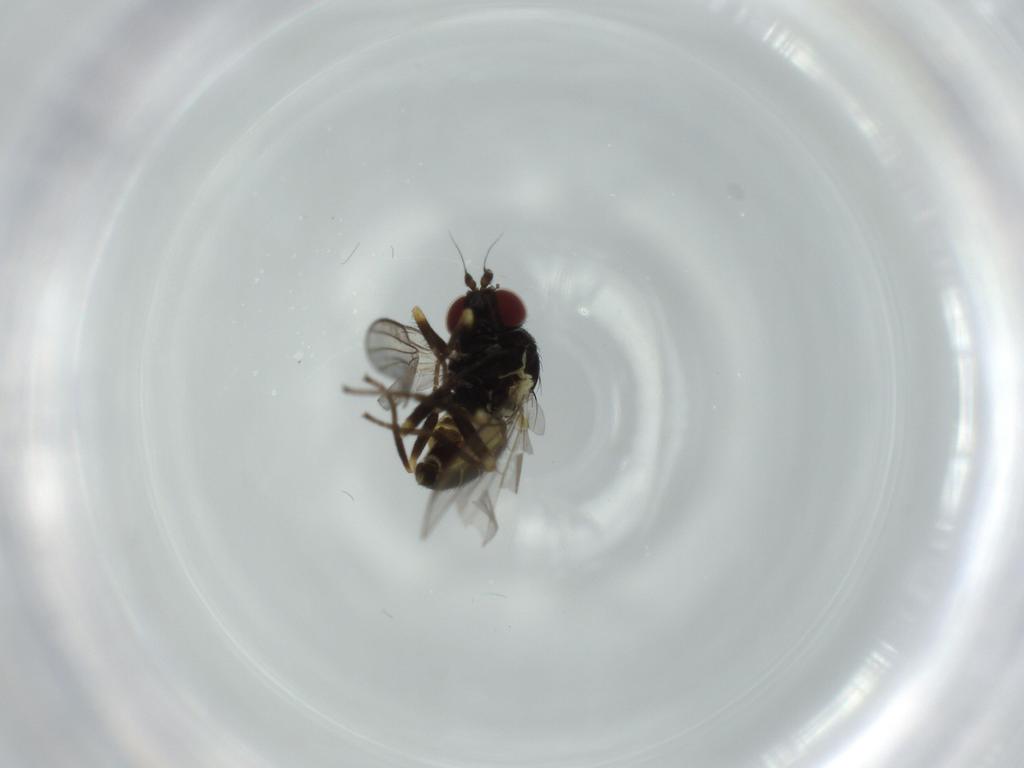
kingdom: Animalia
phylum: Arthropoda
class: Insecta
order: Diptera
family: Agromyzidae
